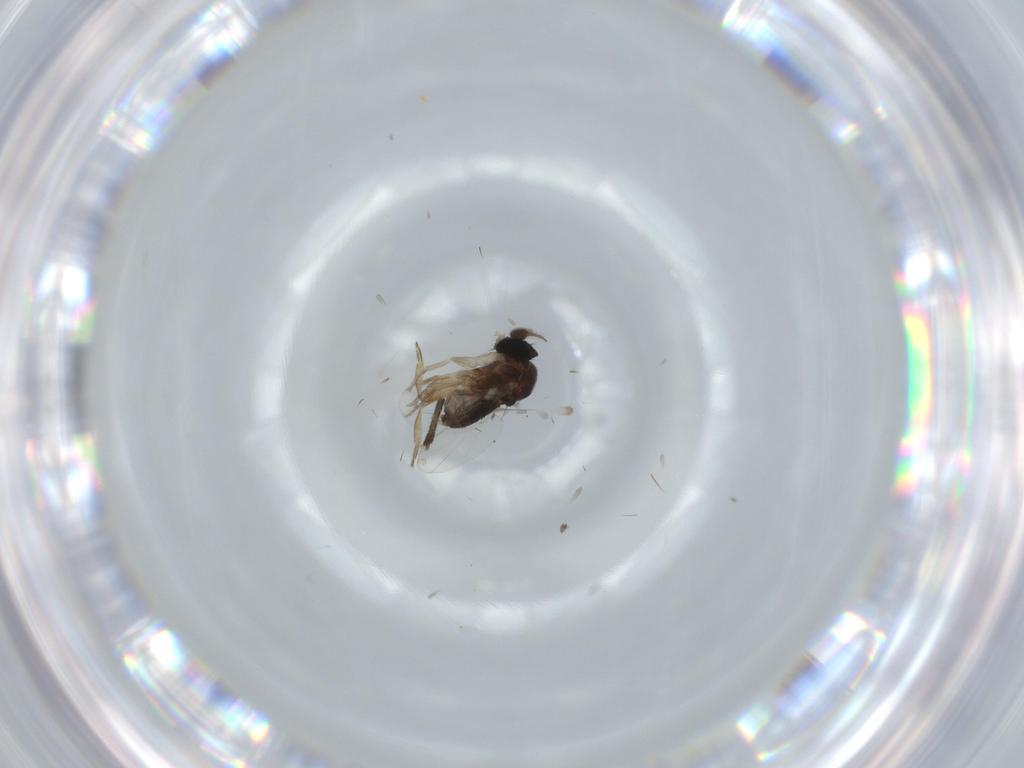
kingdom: Animalia
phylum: Arthropoda
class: Insecta
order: Diptera
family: Phoridae
